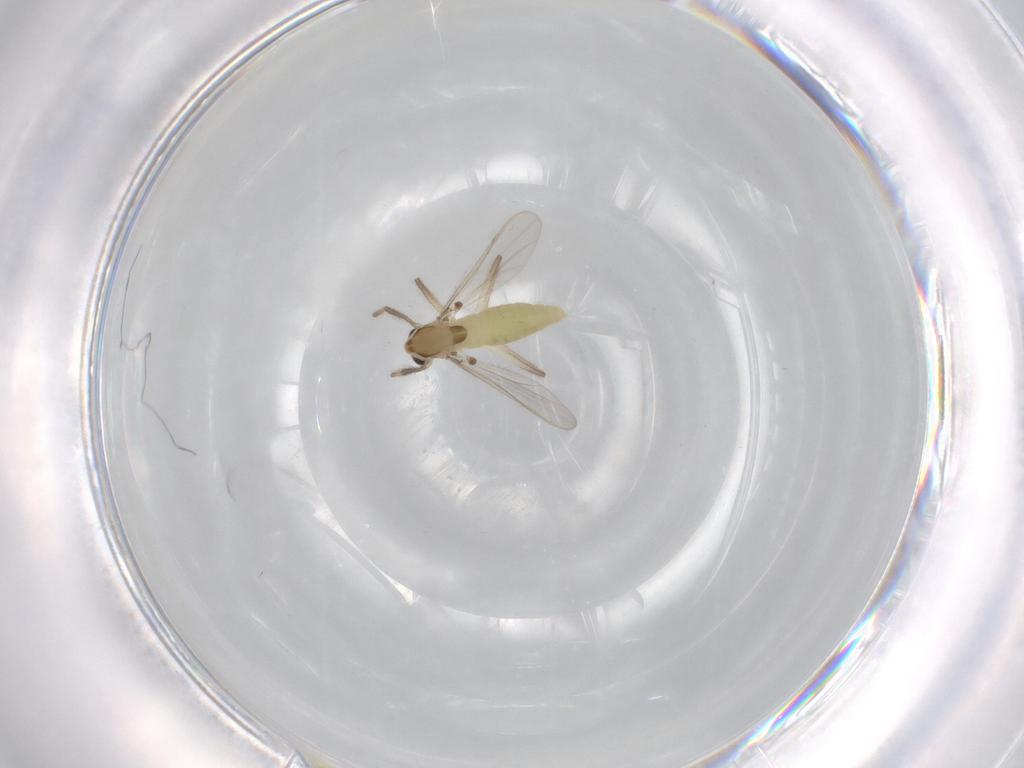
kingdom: Animalia
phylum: Arthropoda
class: Insecta
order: Diptera
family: Chironomidae
